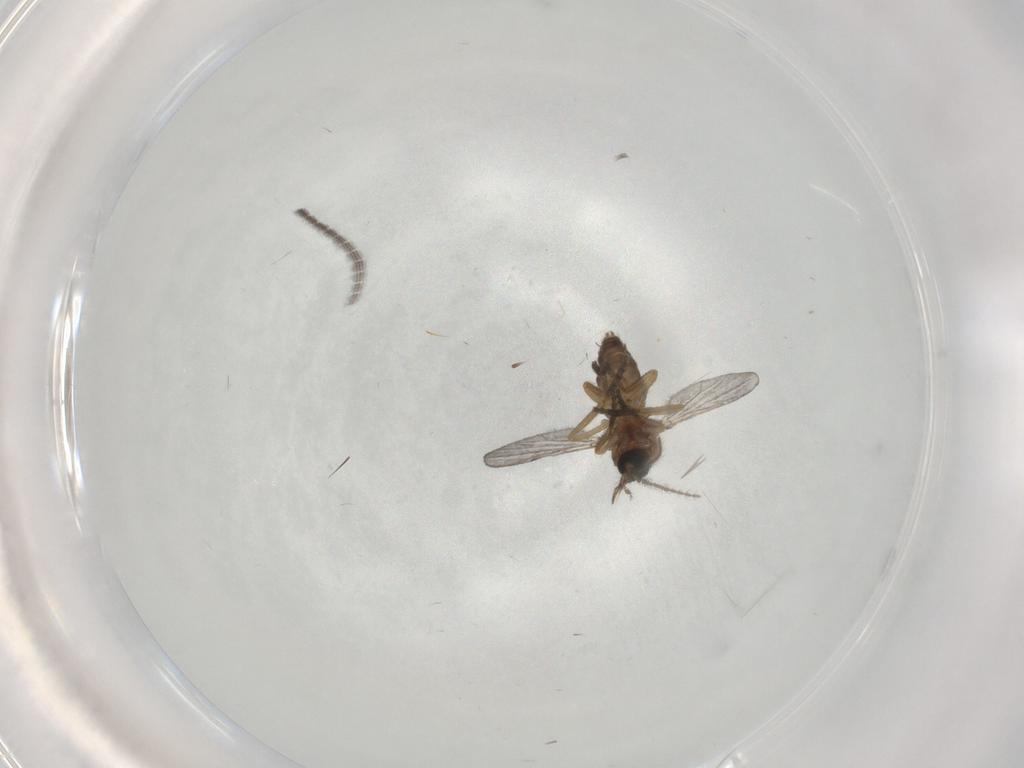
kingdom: Animalia
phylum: Arthropoda
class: Insecta
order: Diptera
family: Ceratopogonidae
